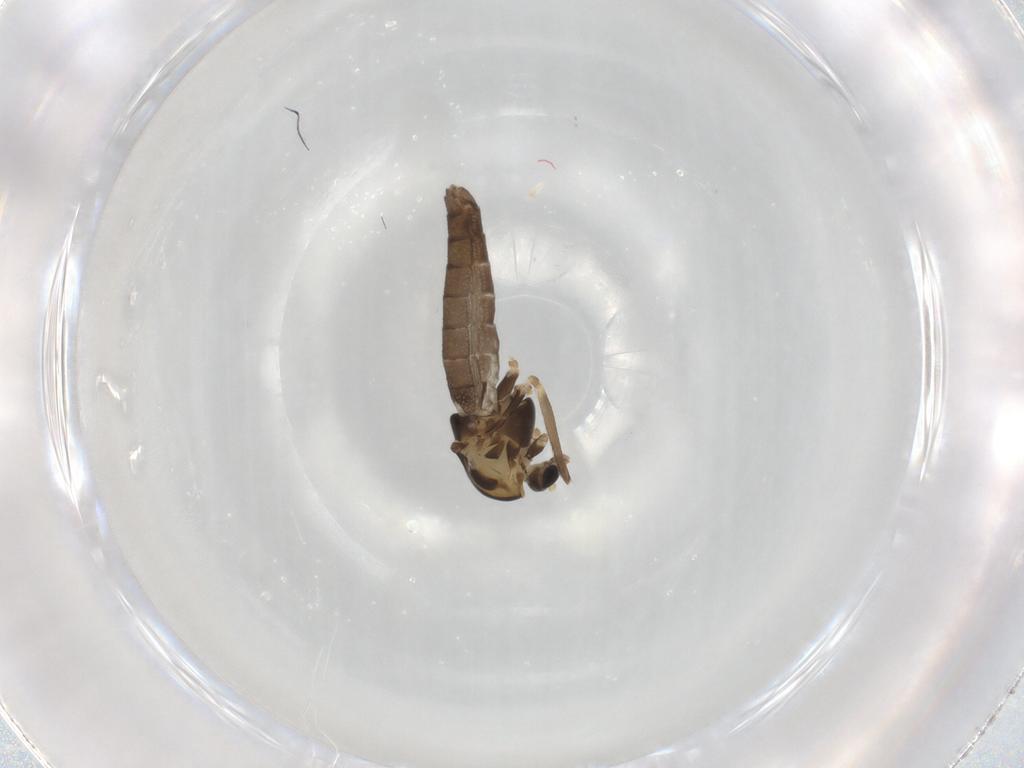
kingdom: Animalia
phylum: Arthropoda
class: Insecta
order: Diptera
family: Chironomidae
